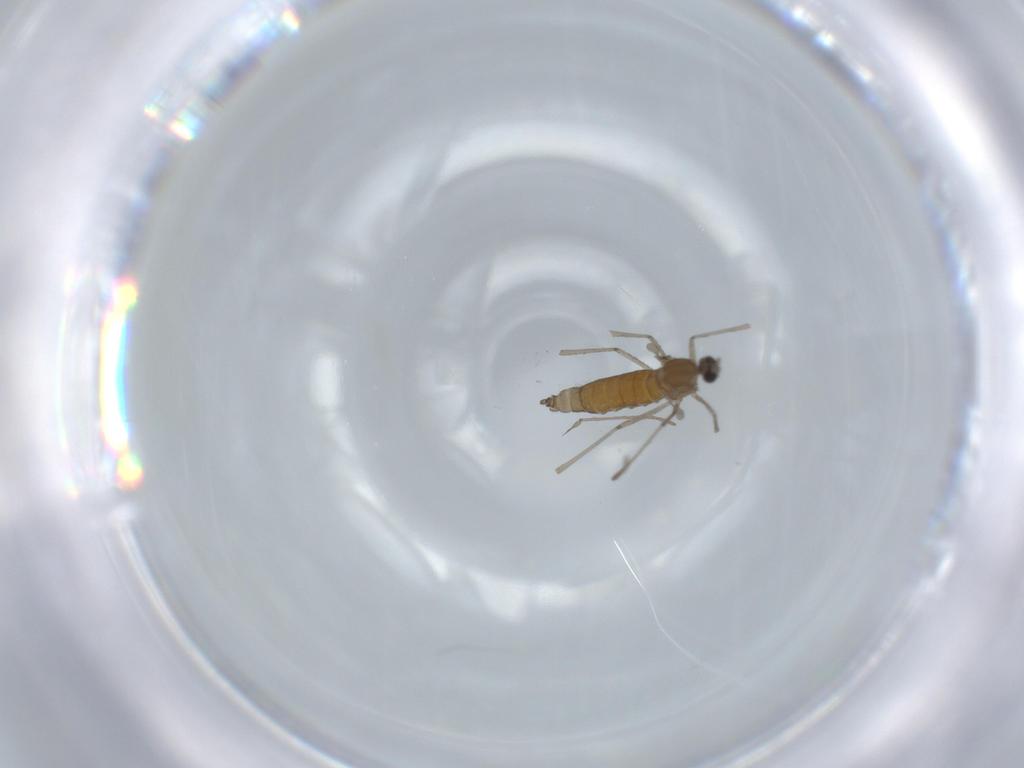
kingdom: Animalia
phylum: Arthropoda
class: Insecta
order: Diptera
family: Cecidomyiidae
